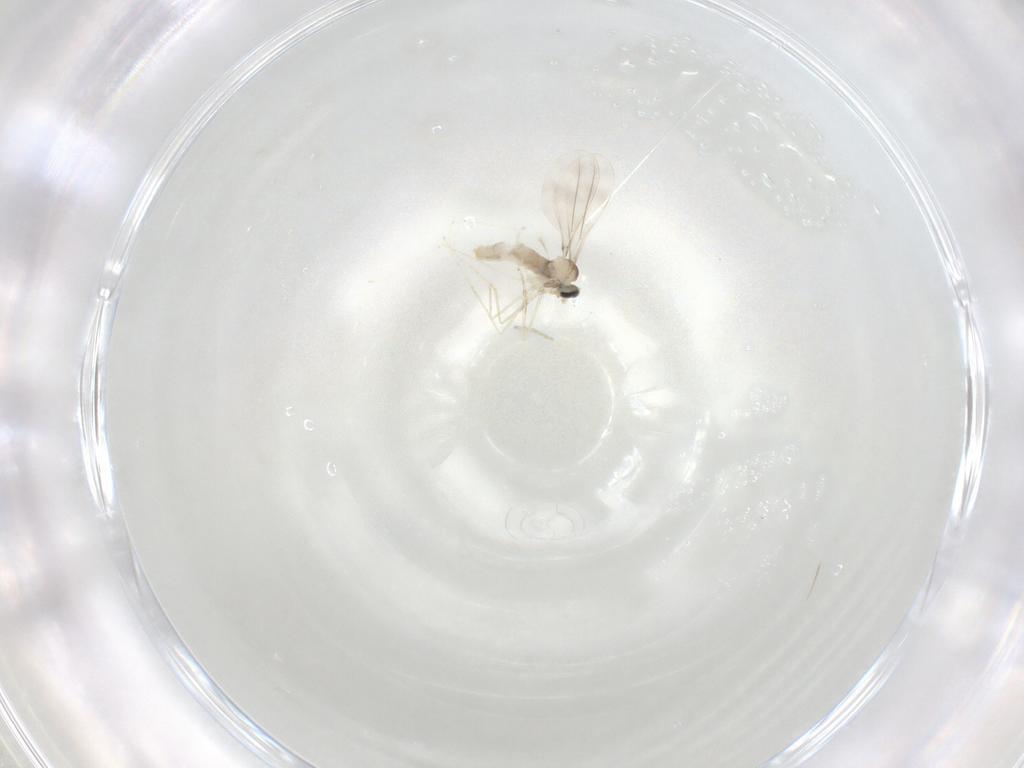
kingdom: Animalia
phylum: Arthropoda
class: Insecta
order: Diptera
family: Cecidomyiidae
